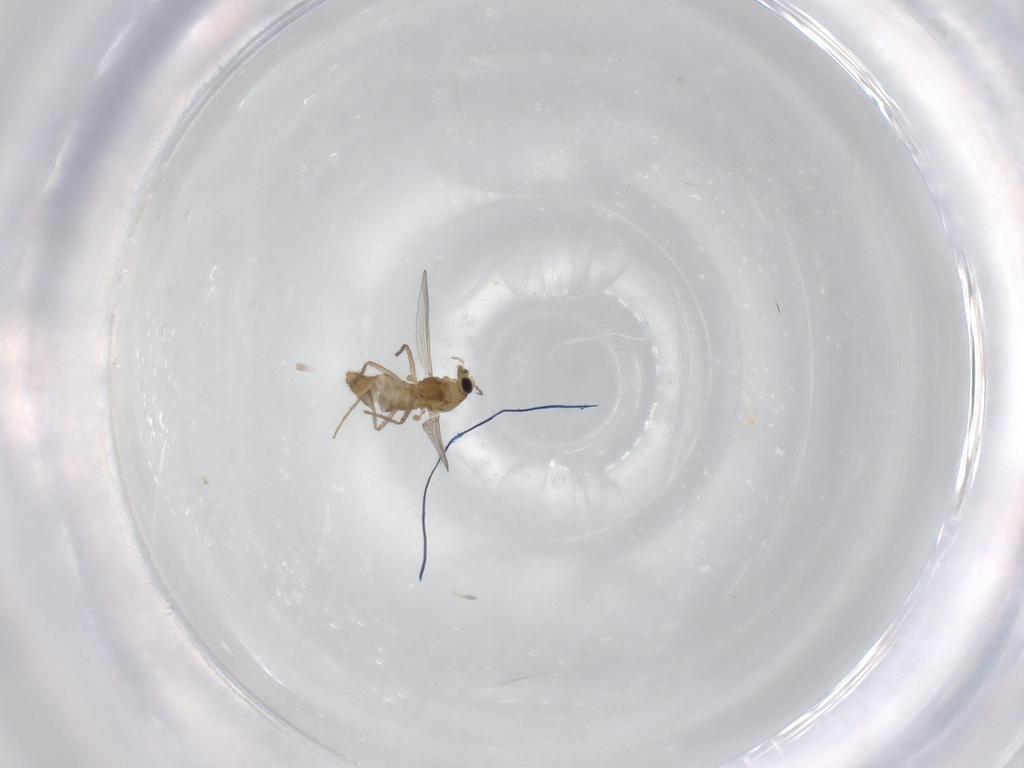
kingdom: Animalia
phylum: Arthropoda
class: Insecta
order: Diptera
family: Chironomidae
